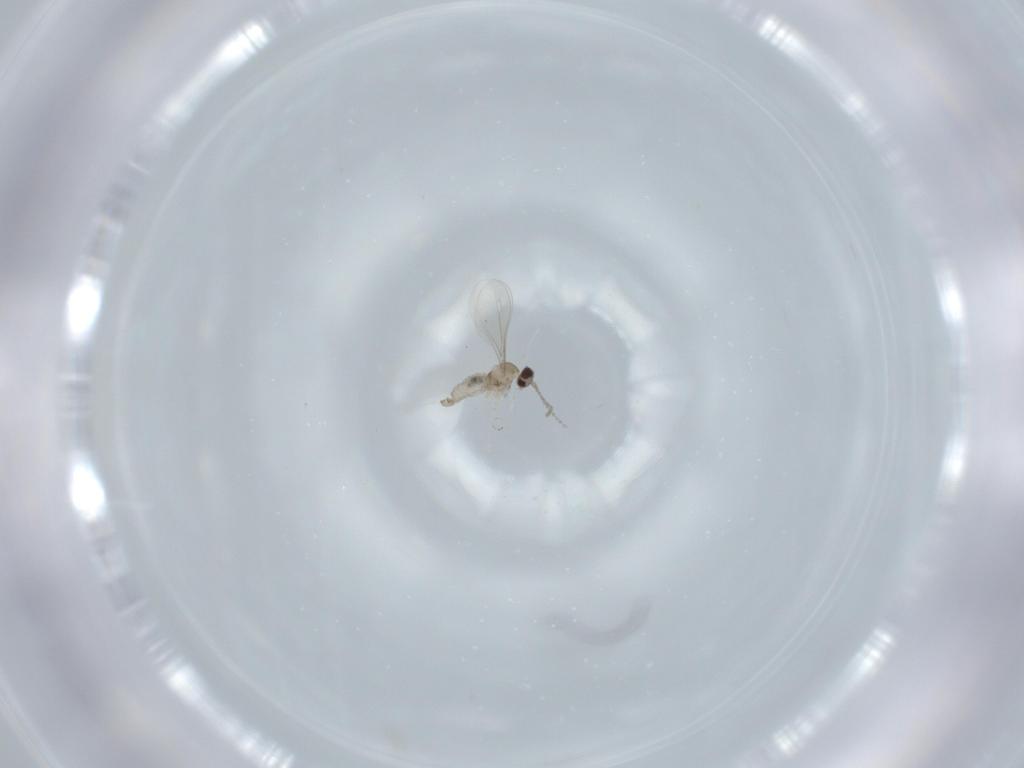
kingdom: Animalia
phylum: Arthropoda
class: Insecta
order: Diptera
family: Cecidomyiidae
